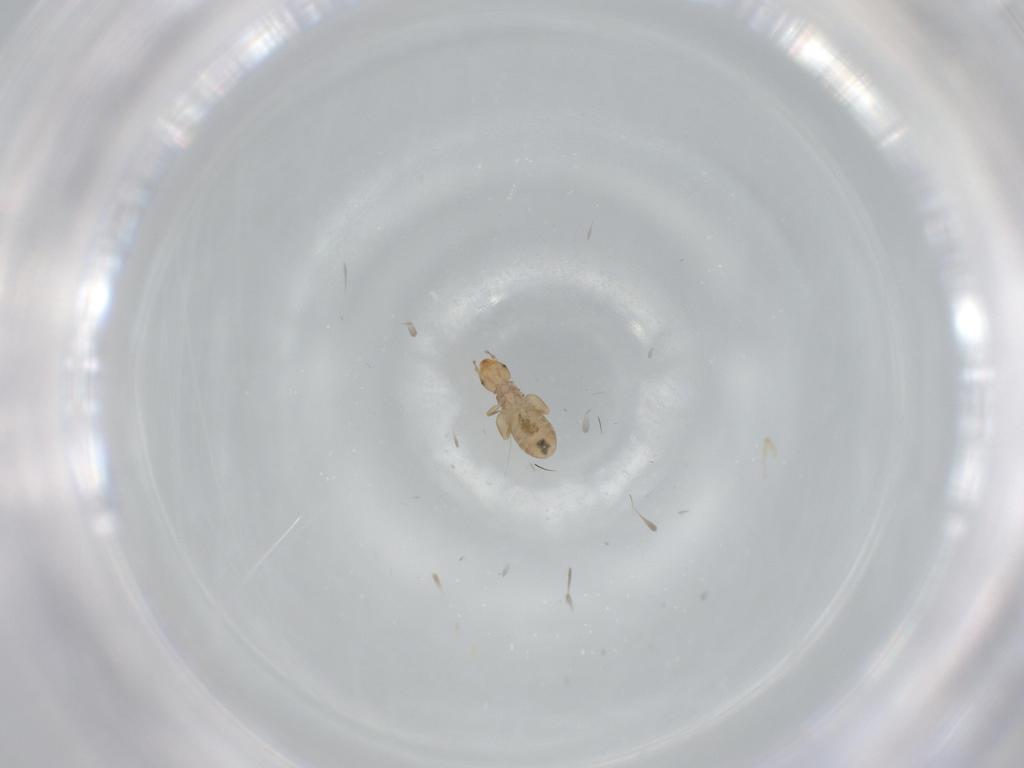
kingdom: Animalia
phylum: Arthropoda
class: Insecta
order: Psocodea
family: Liposcelididae
